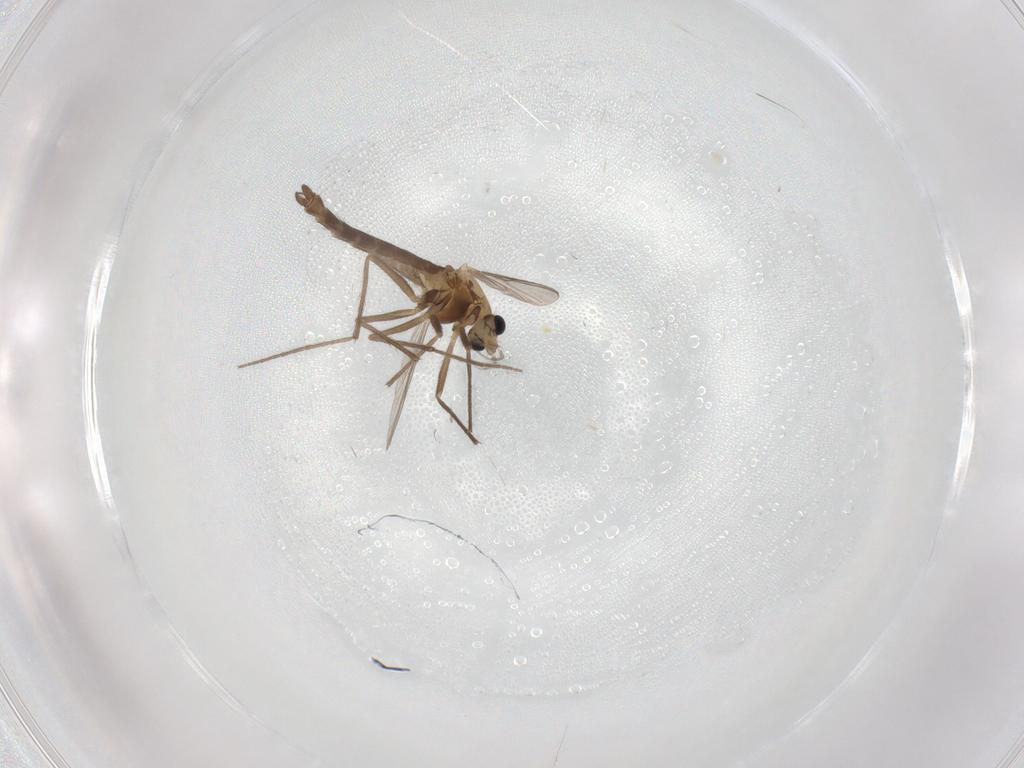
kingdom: Animalia
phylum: Arthropoda
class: Insecta
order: Diptera
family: Chironomidae
